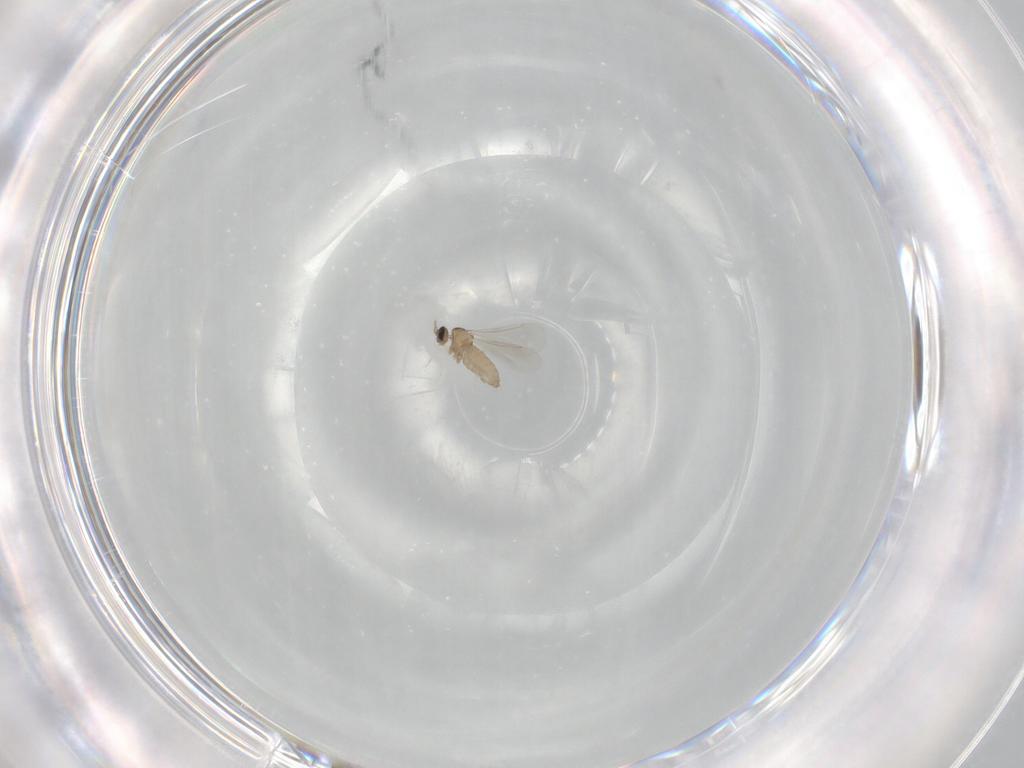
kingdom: Animalia
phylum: Arthropoda
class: Insecta
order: Diptera
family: Cecidomyiidae
